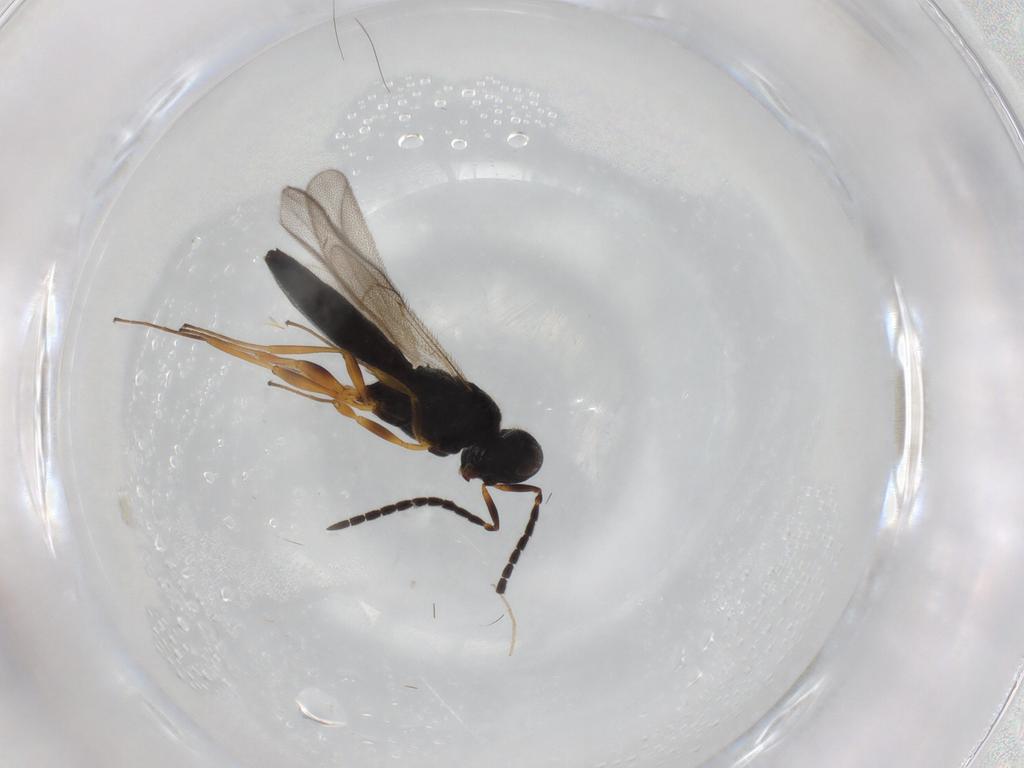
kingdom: Animalia
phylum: Arthropoda
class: Insecta
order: Hymenoptera
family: Scelionidae
